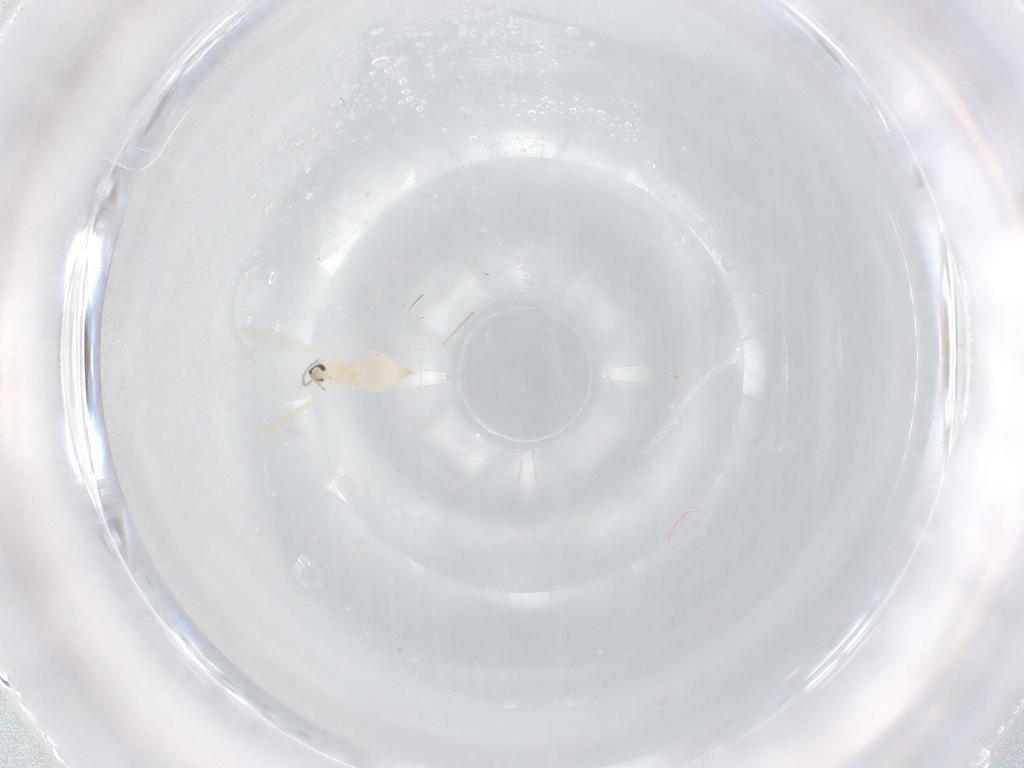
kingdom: Animalia
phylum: Arthropoda
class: Insecta
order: Diptera
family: Cecidomyiidae
